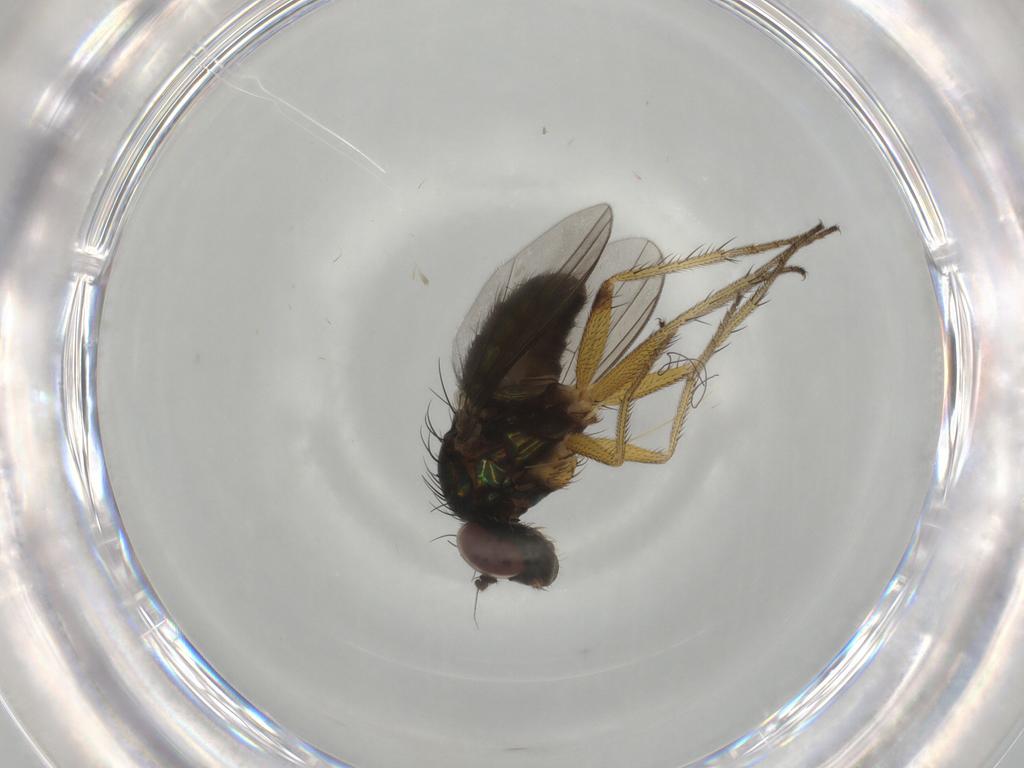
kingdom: Animalia
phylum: Arthropoda
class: Insecta
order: Diptera
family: Dolichopodidae
